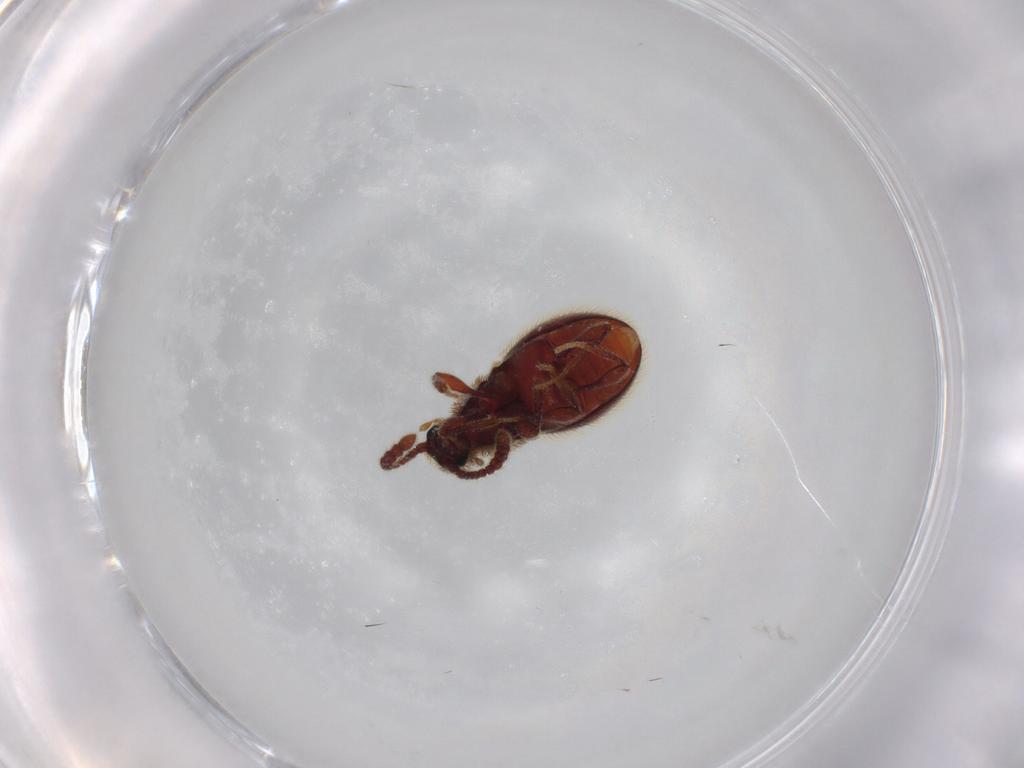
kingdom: Animalia
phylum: Arthropoda
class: Insecta
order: Coleoptera
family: Staphylinidae
